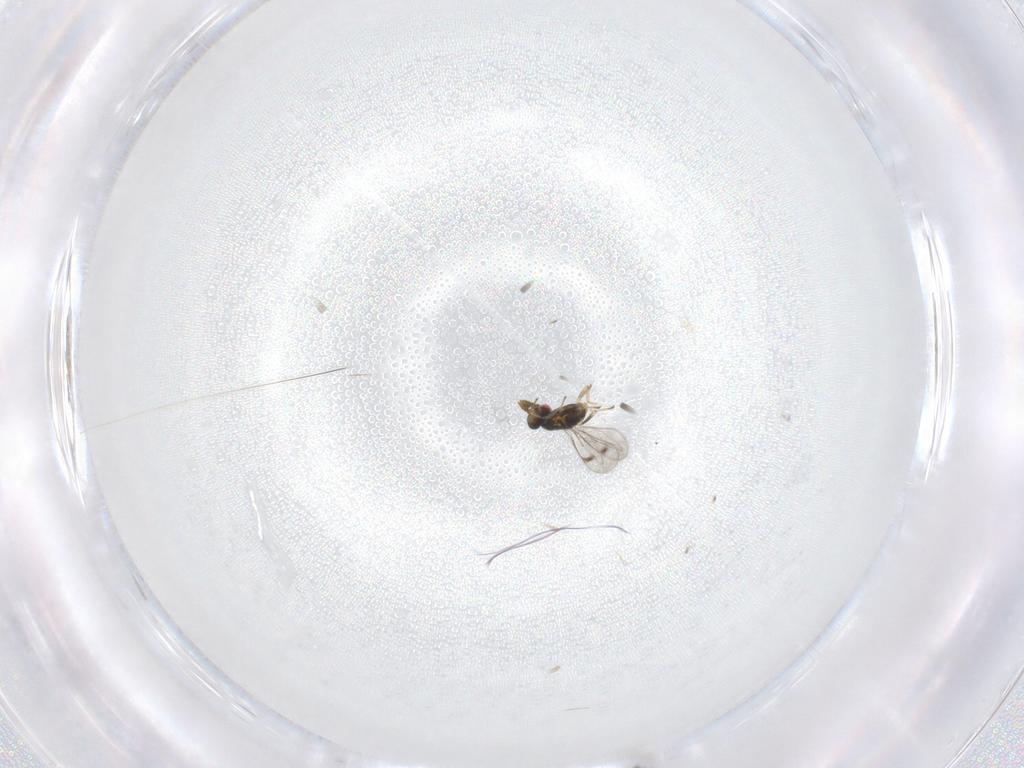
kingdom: Animalia
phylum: Arthropoda
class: Insecta
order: Hymenoptera
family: Eulophidae
